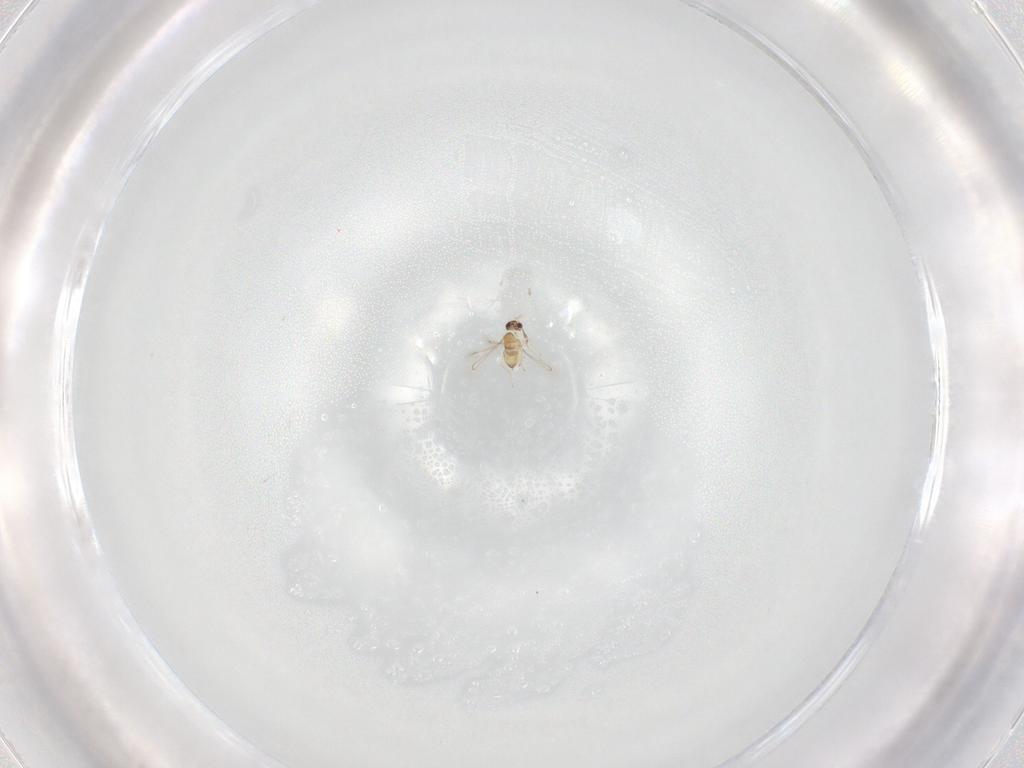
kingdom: Animalia
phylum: Arthropoda
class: Insecta
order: Hymenoptera
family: Mymaridae
